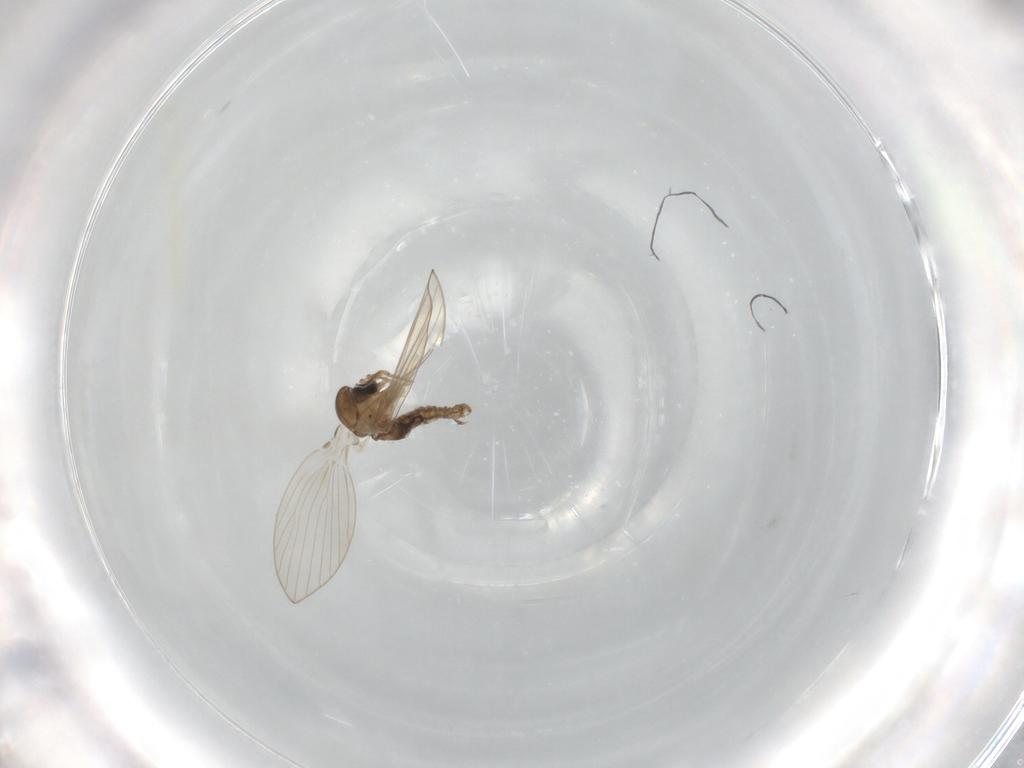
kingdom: Animalia
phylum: Arthropoda
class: Insecta
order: Diptera
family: Psychodidae
